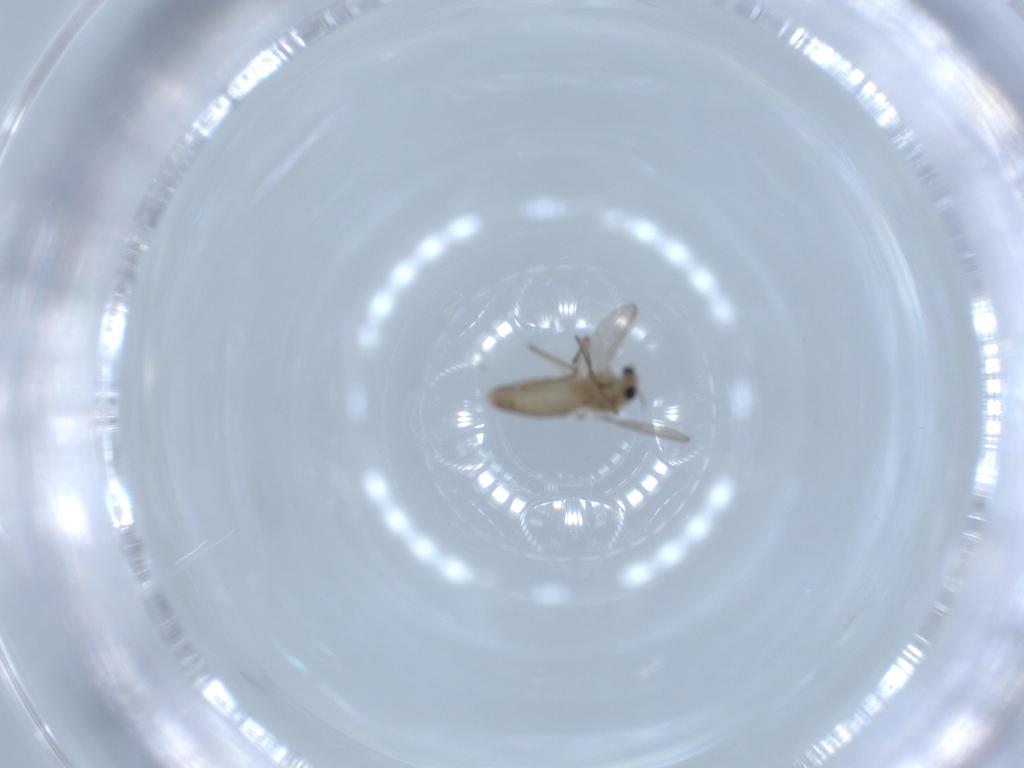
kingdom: Animalia
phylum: Arthropoda
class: Insecta
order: Diptera
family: Chironomidae
